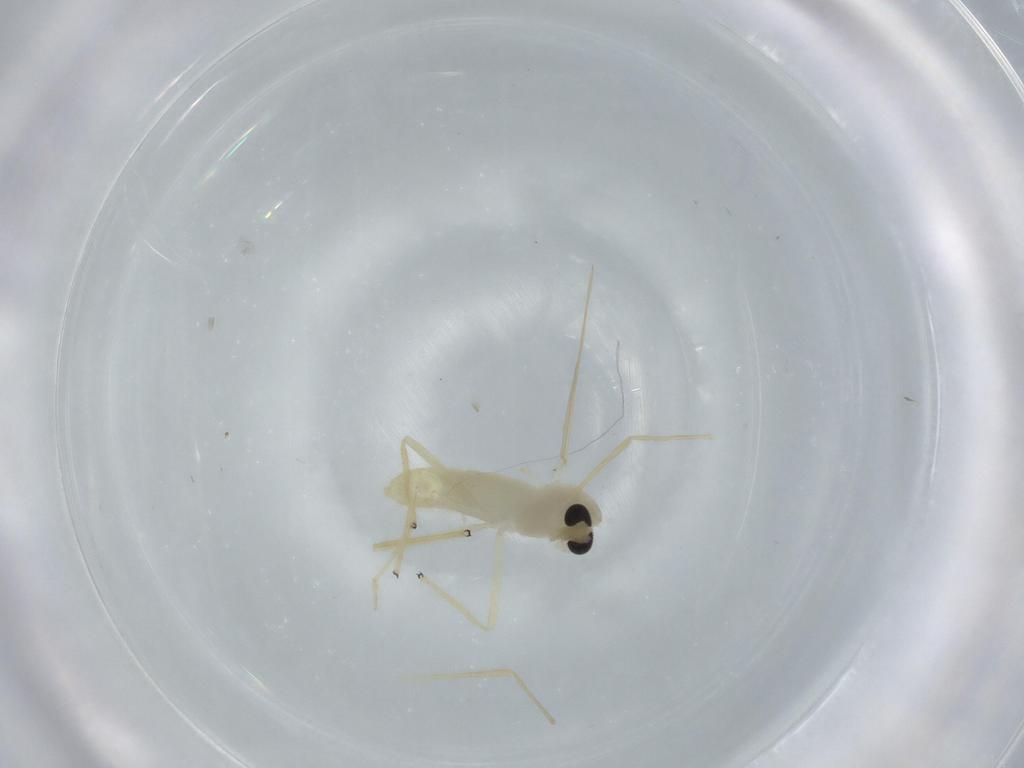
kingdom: Animalia
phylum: Arthropoda
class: Insecta
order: Diptera
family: Chironomidae
